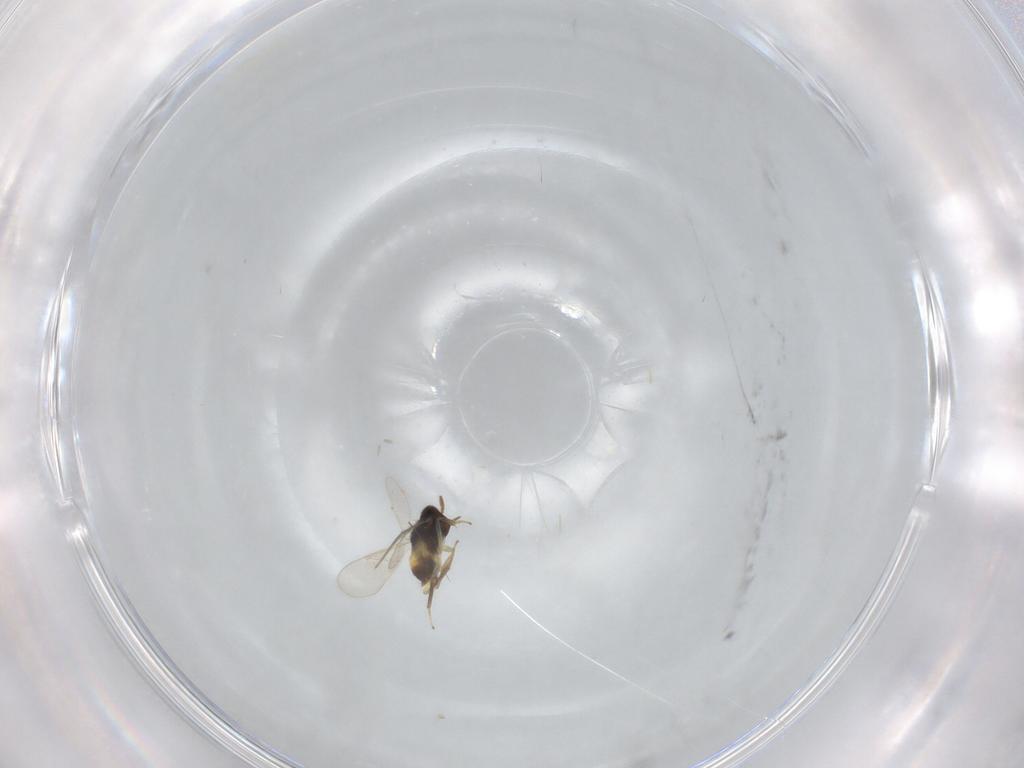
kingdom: Animalia
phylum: Arthropoda
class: Insecta
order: Hymenoptera
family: Aphelinidae
